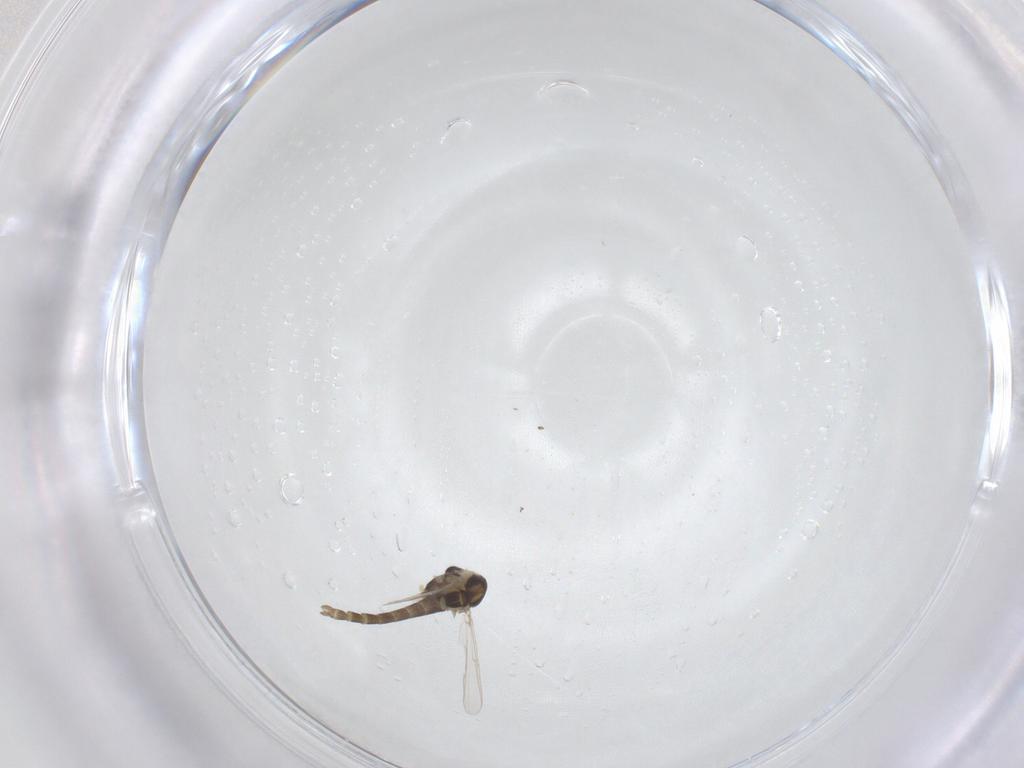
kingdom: Animalia
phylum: Arthropoda
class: Insecta
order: Diptera
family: Chironomidae
